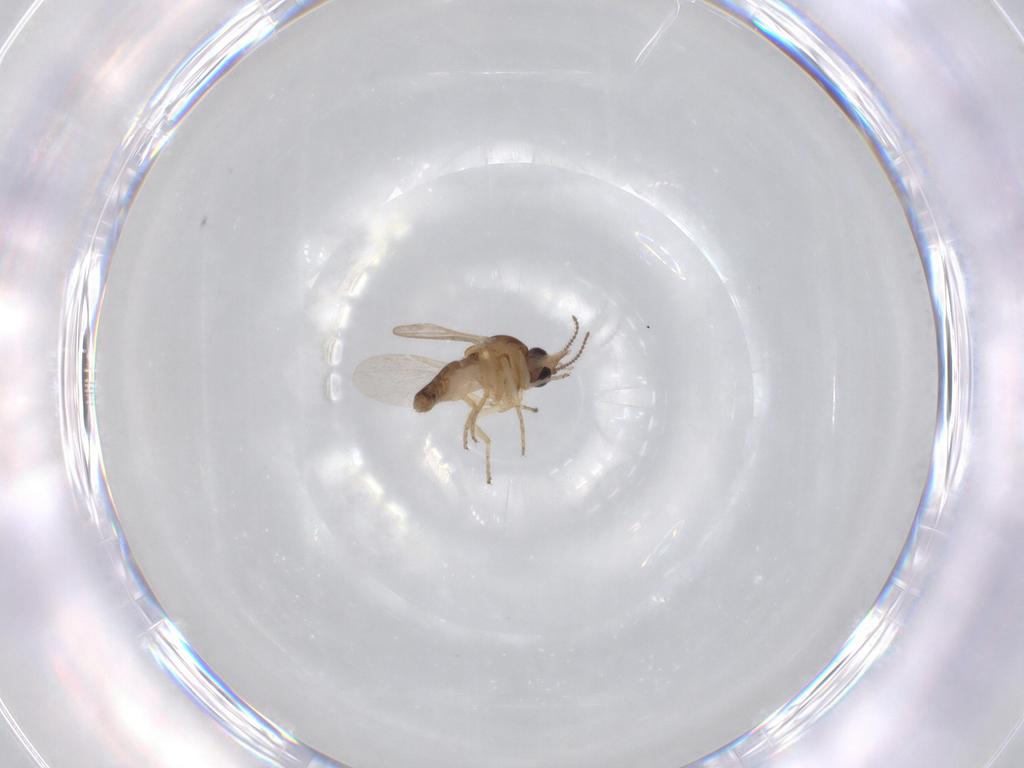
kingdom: Animalia
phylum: Arthropoda
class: Insecta
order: Diptera
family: Ceratopogonidae
